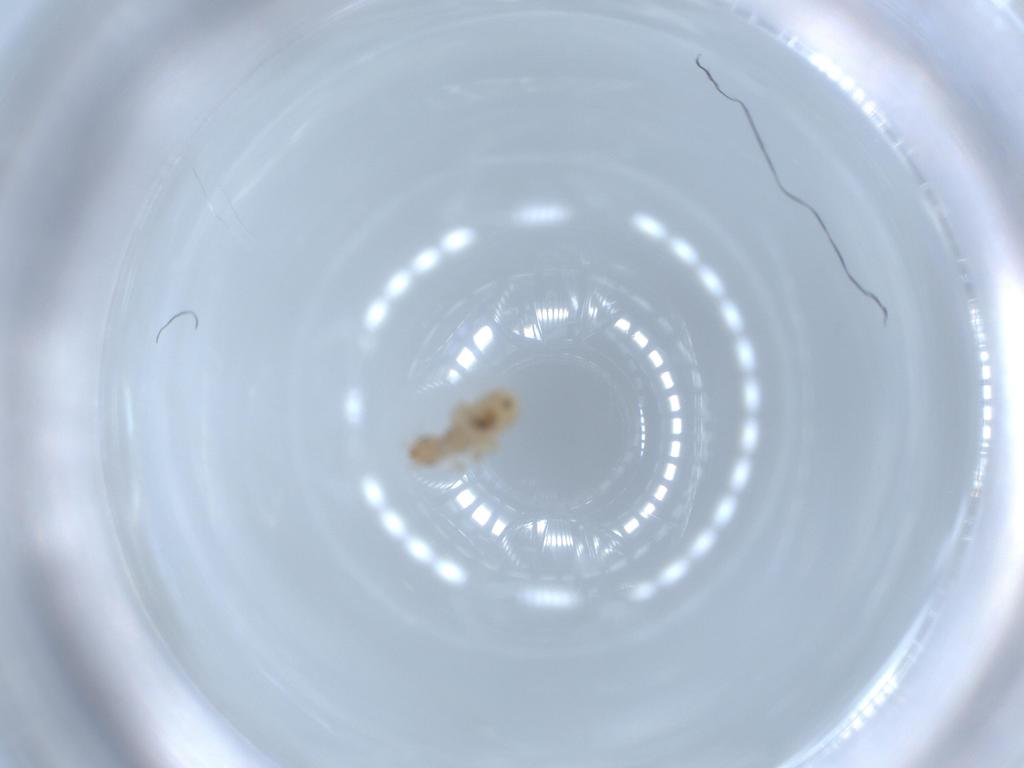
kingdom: Animalia
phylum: Arthropoda
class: Insecta
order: Psocodea
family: Liposcelididae
